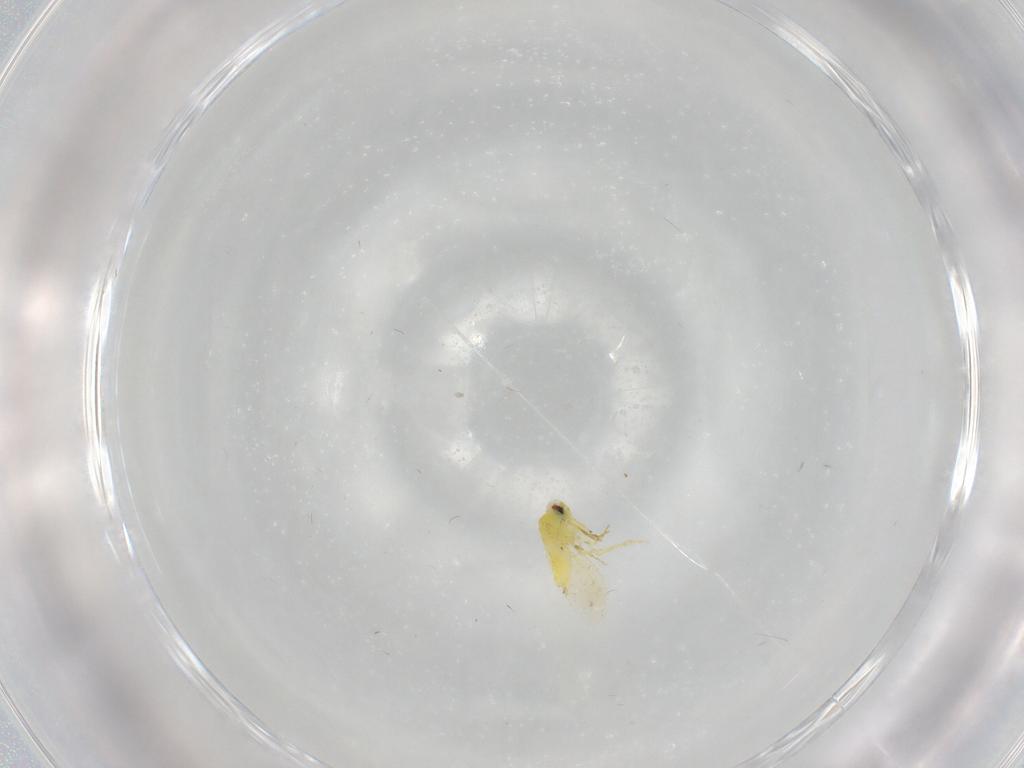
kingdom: Animalia
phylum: Arthropoda
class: Insecta
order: Hemiptera
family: Aleyrodidae
